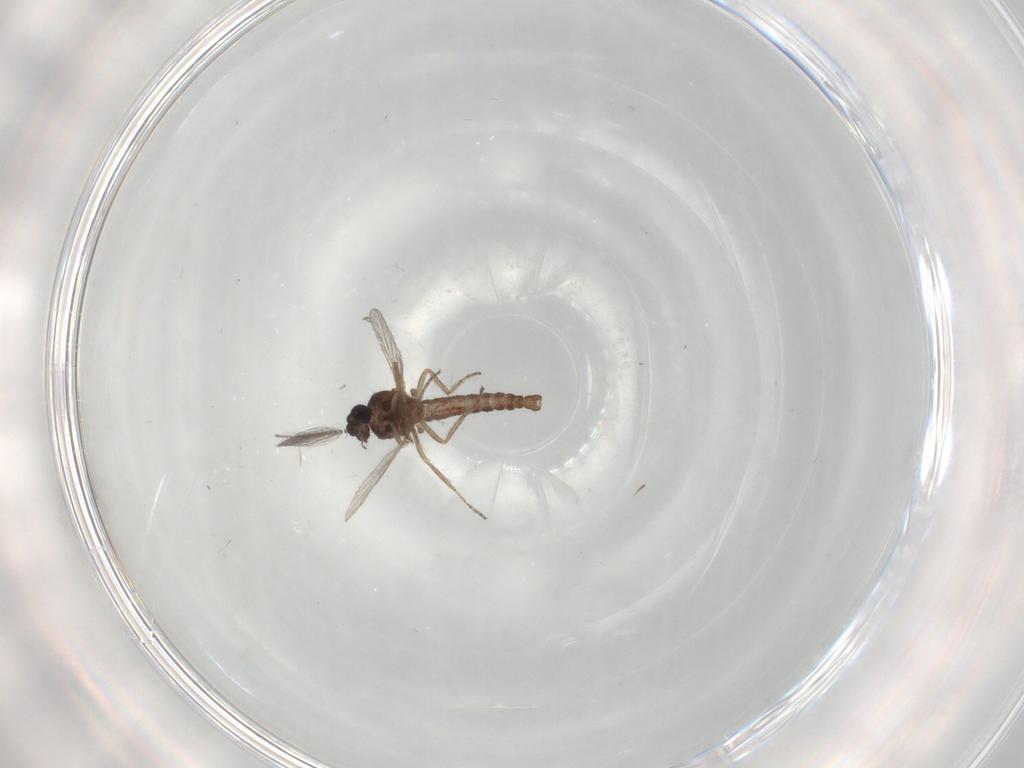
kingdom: Animalia
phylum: Arthropoda
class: Insecta
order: Diptera
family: Ceratopogonidae
